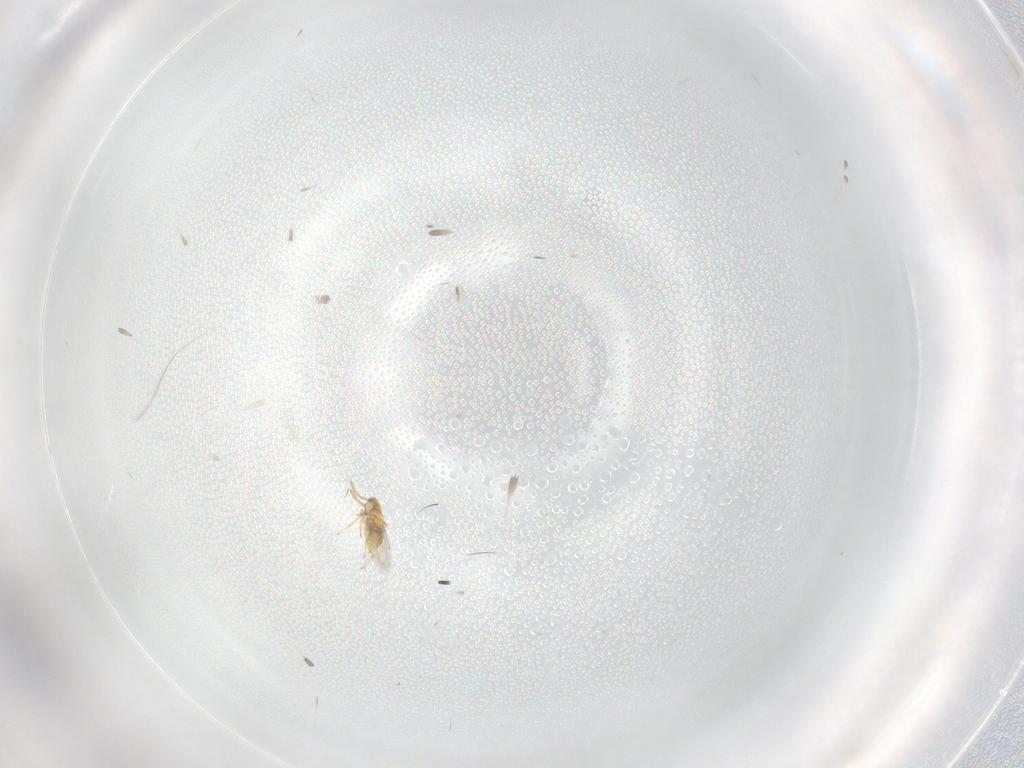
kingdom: Animalia
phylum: Arthropoda
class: Insecta
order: Hymenoptera
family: Aphelinidae
